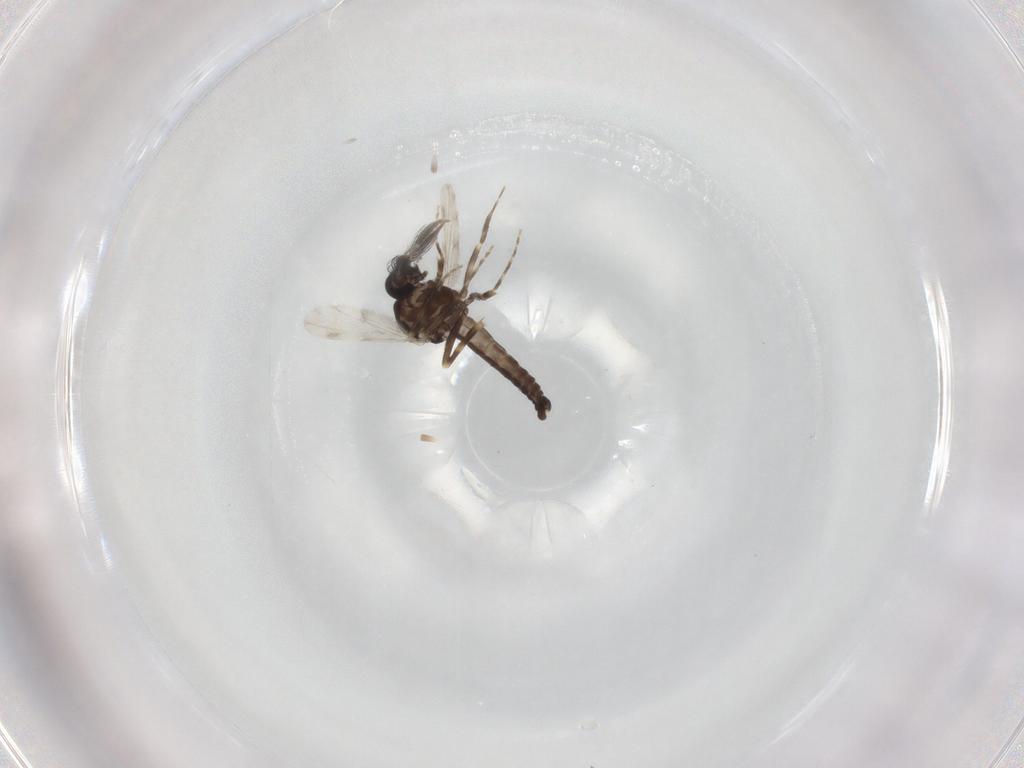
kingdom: Animalia
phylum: Arthropoda
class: Insecta
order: Diptera
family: Ceratopogonidae
